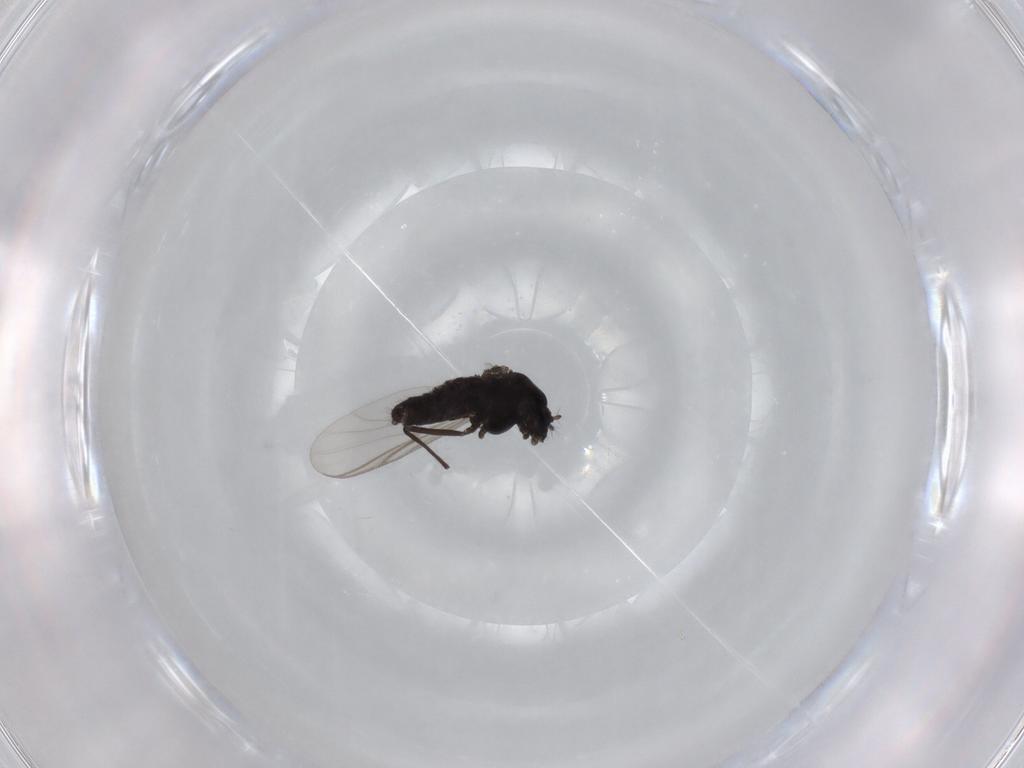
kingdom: Animalia
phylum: Arthropoda
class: Insecta
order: Diptera
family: Chironomidae
